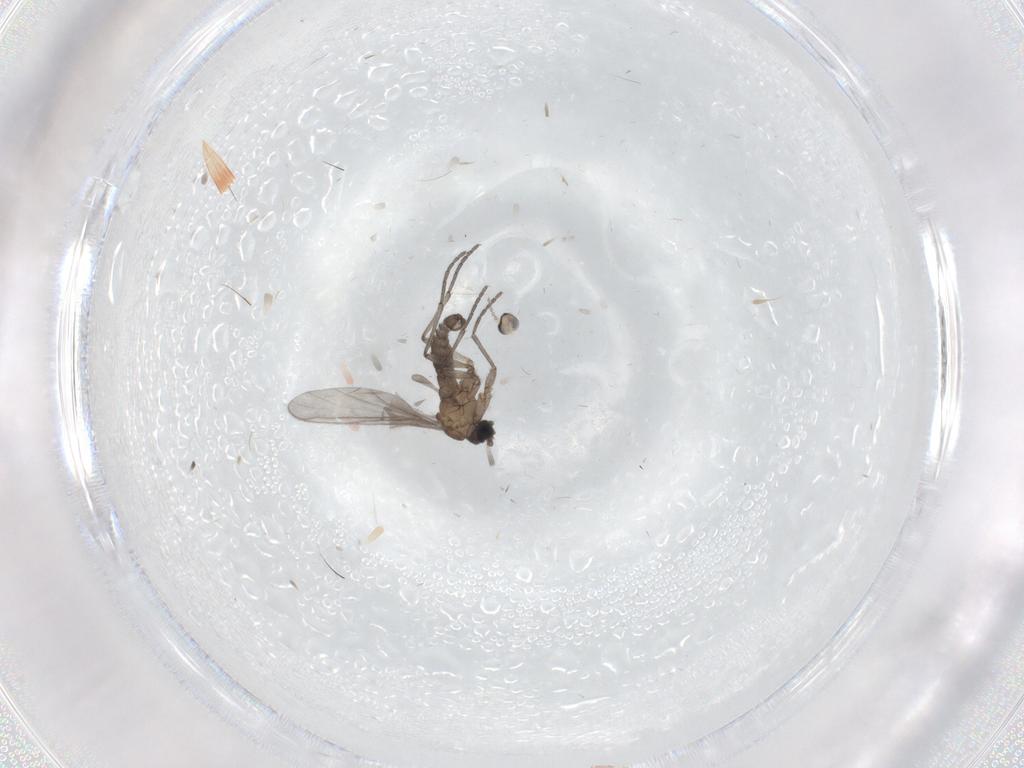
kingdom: Animalia
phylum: Arthropoda
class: Insecta
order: Diptera
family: Sciaridae
